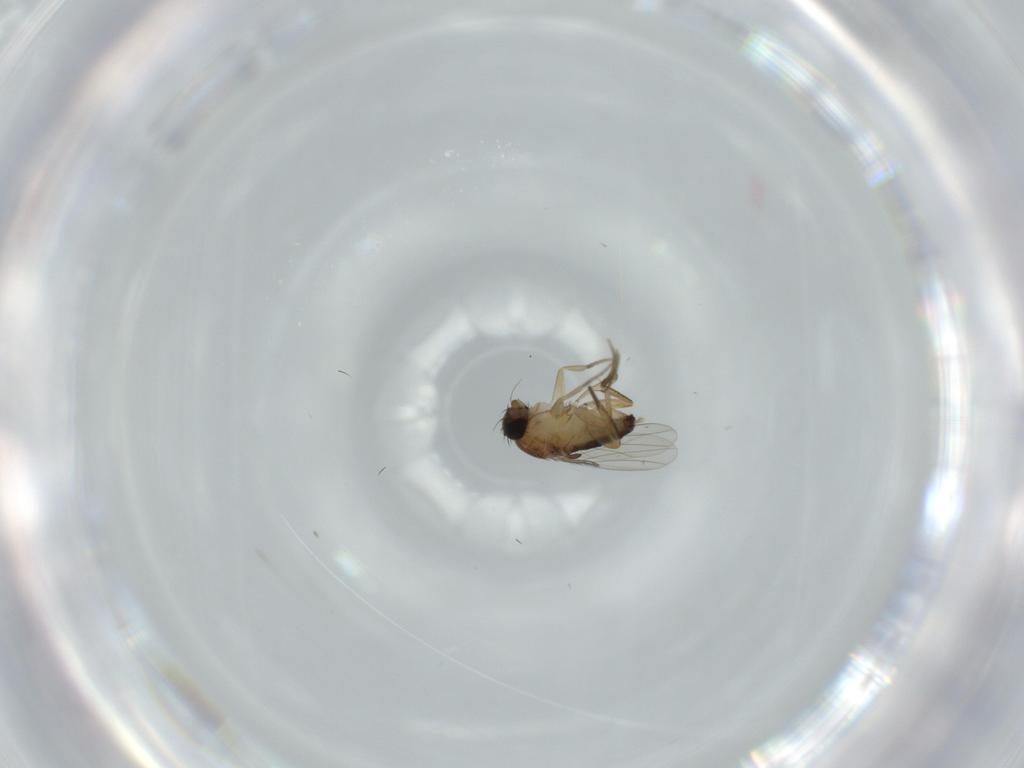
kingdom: Animalia
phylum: Arthropoda
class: Insecta
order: Diptera
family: Phoridae
